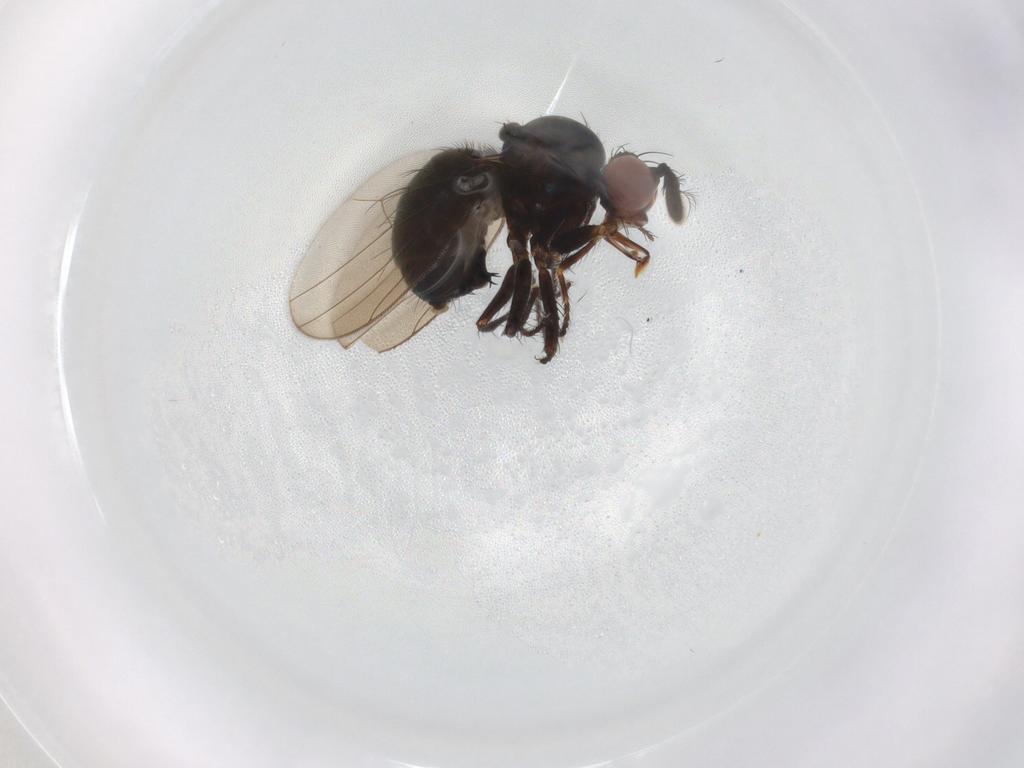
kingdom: Animalia
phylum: Arthropoda
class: Insecta
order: Diptera
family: Ephydridae
